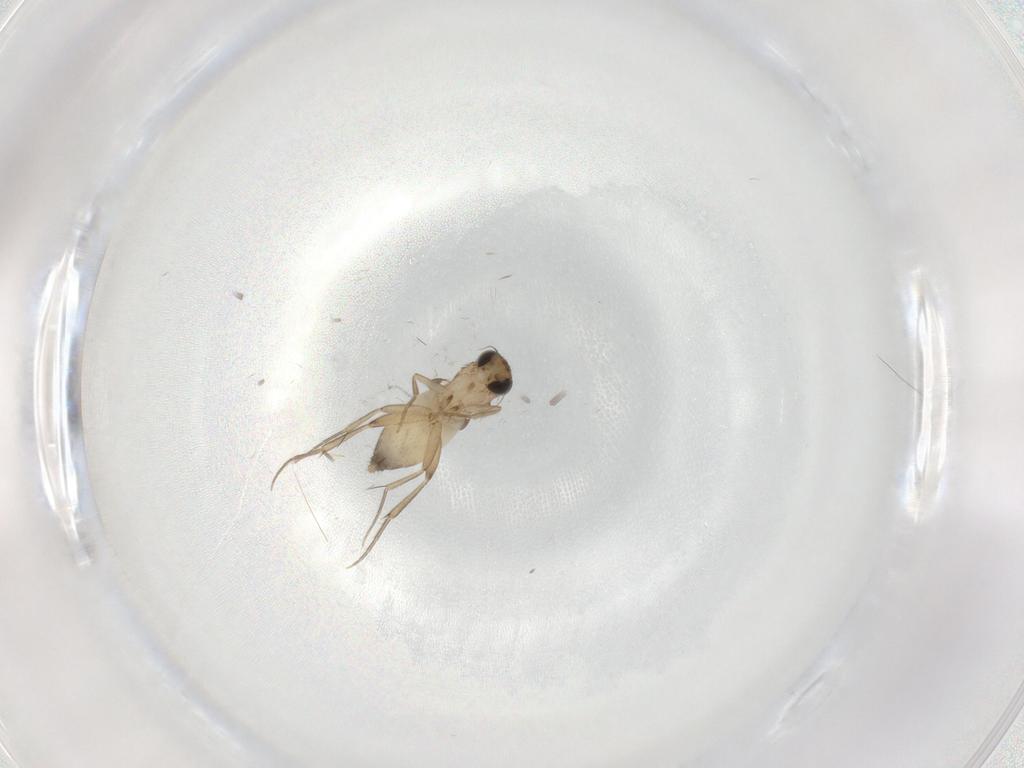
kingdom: Animalia
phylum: Arthropoda
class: Insecta
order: Diptera
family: Phoridae
